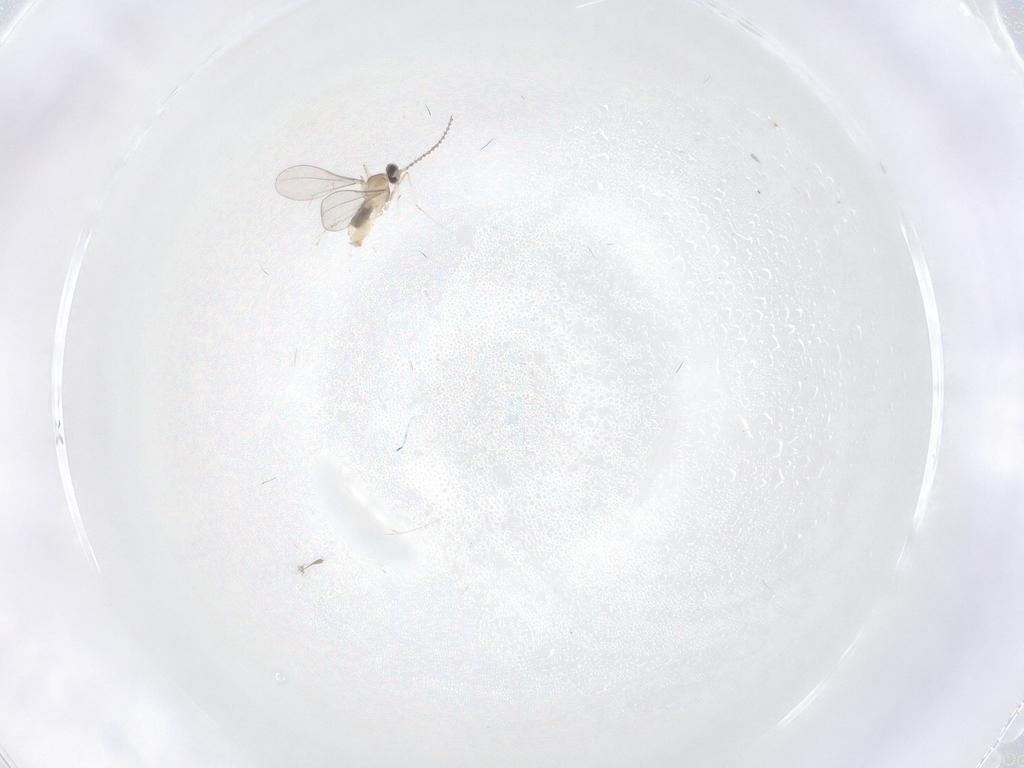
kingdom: Animalia
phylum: Arthropoda
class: Insecta
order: Diptera
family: Cecidomyiidae
